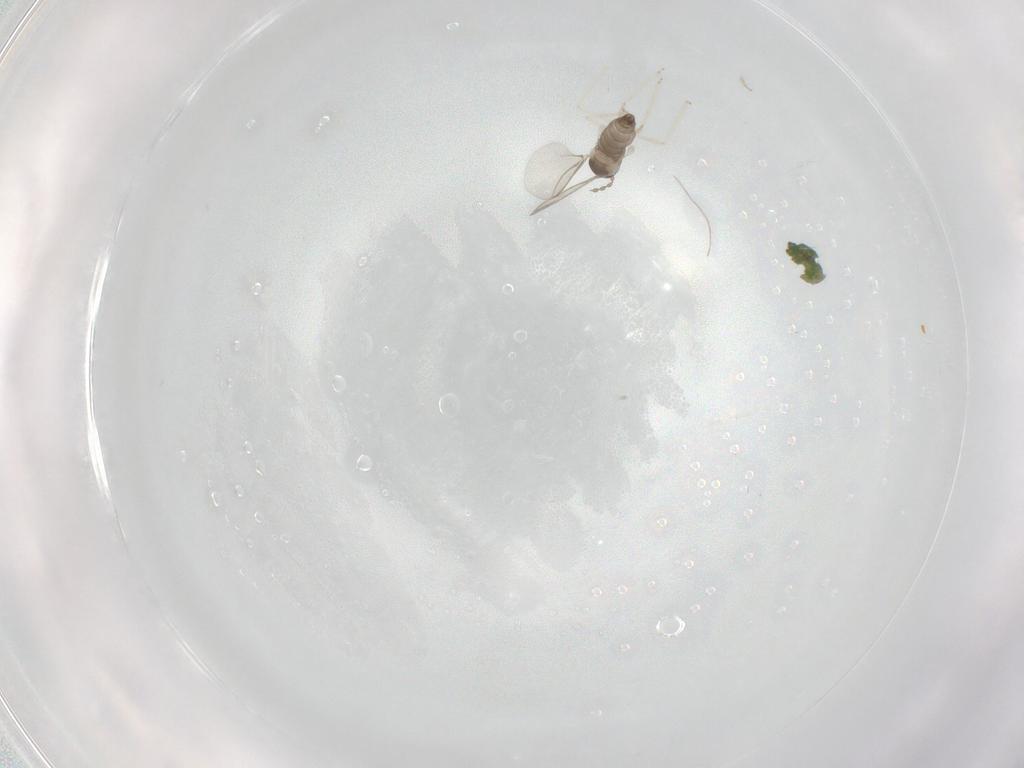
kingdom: Animalia
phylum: Arthropoda
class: Insecta
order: Diptera
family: Cecidomyiidae
